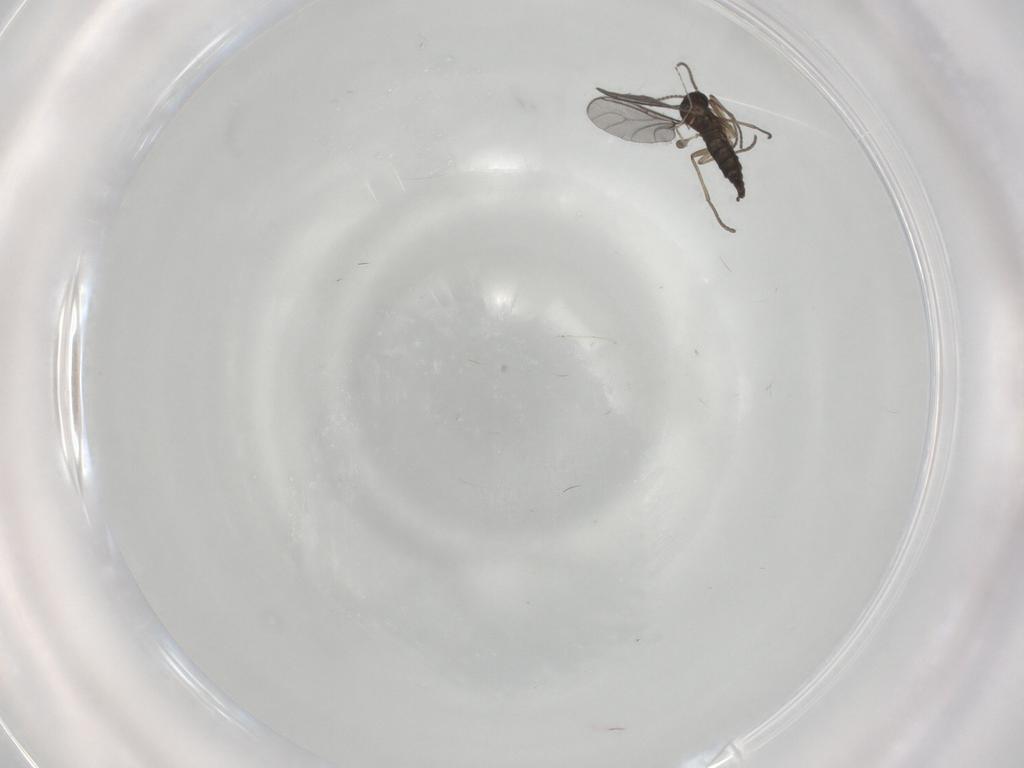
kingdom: Animalia
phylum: Arthropoda
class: Insecta
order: Diptera
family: Sciaridae
